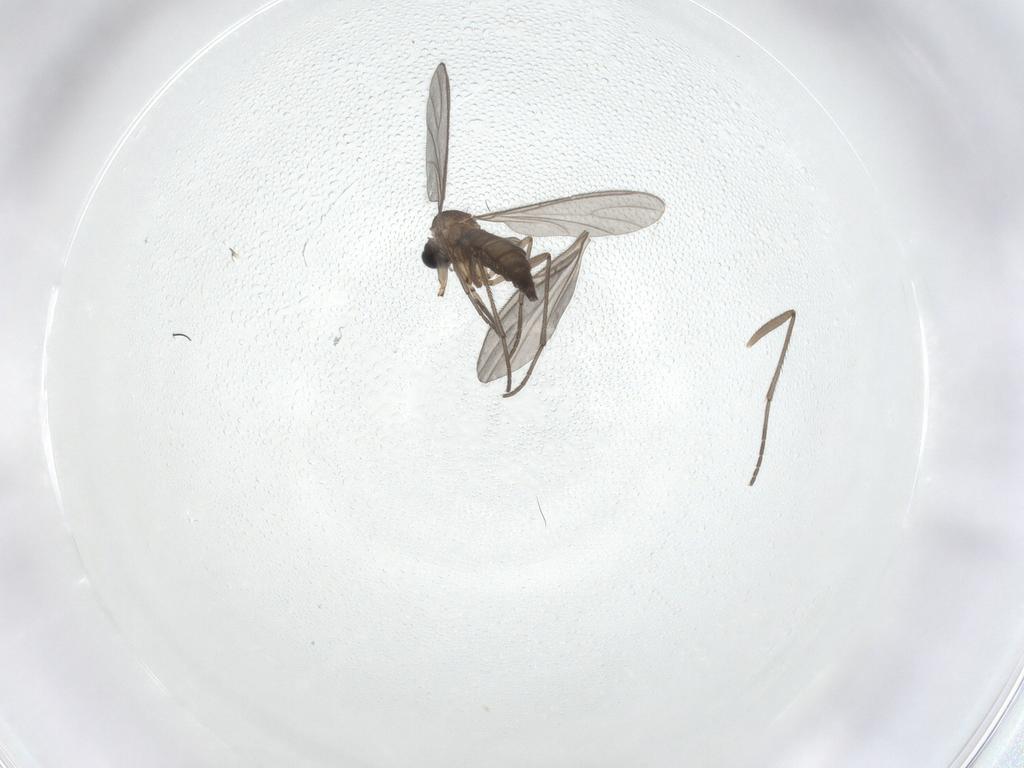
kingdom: Animalia
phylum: Arthropoda
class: Insecta
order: Diptera
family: Sciaridae
